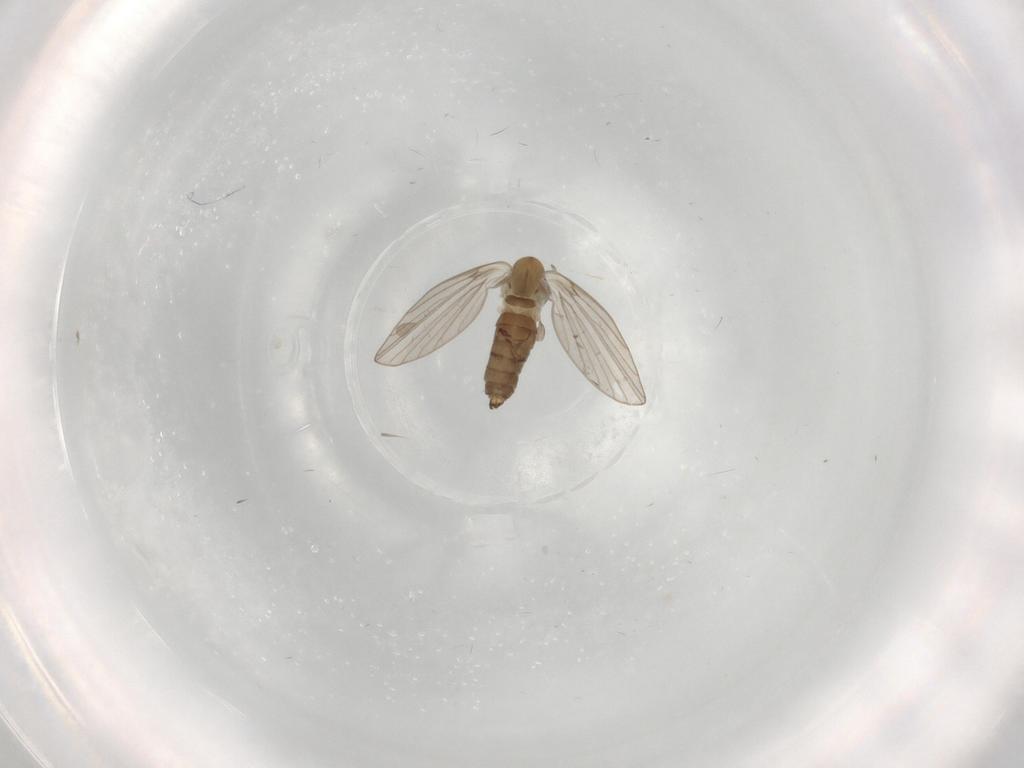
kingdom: Animalia
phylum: Arthropoda
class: Insecta
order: Diptera
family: Psychodidae
